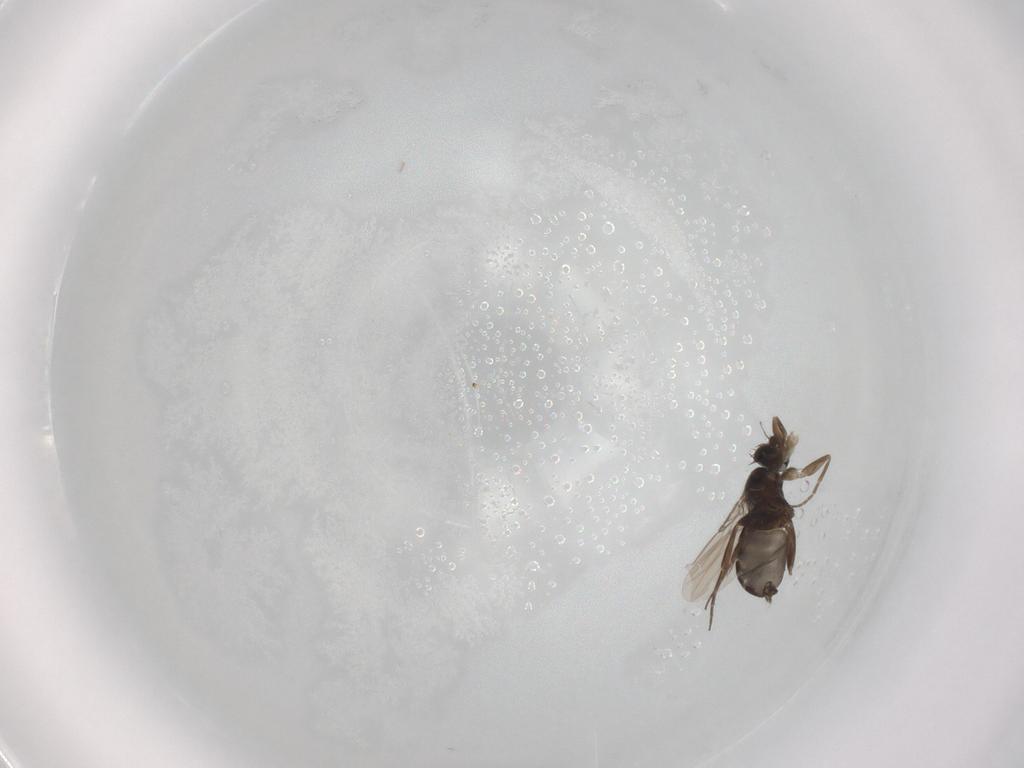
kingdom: Animalia
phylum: Arthropoda
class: Insecta
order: Diptera
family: Phoridae
